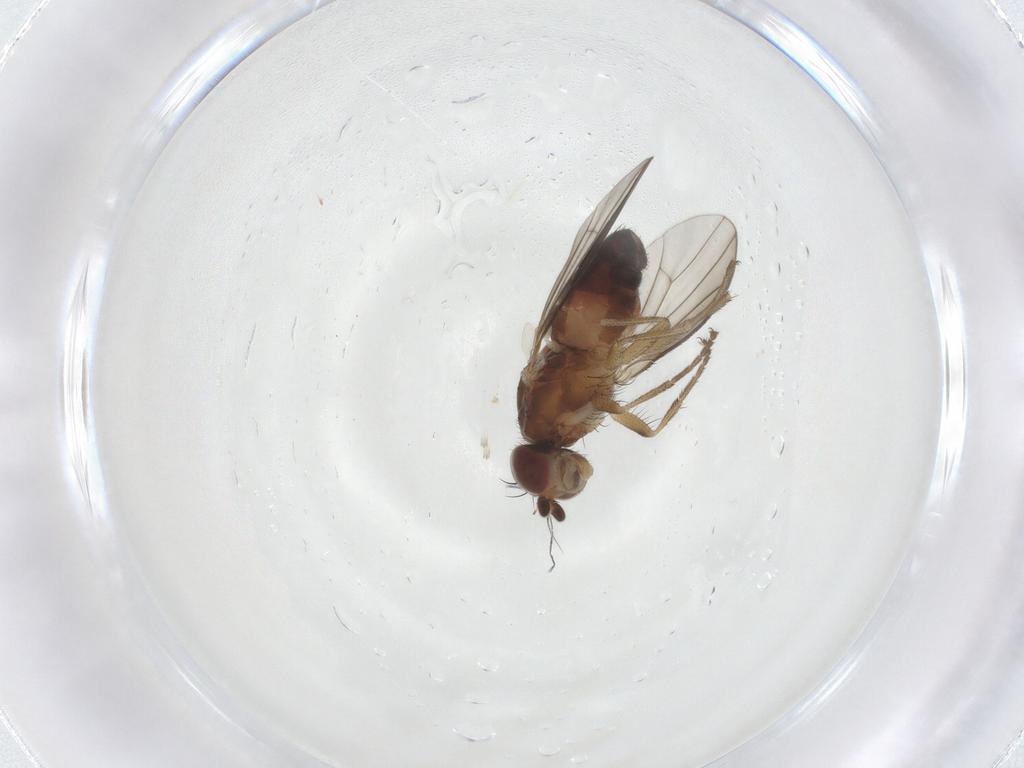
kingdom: Animalia
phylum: Arthropoda
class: Insecta
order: Diptera
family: Heleomyzidae
